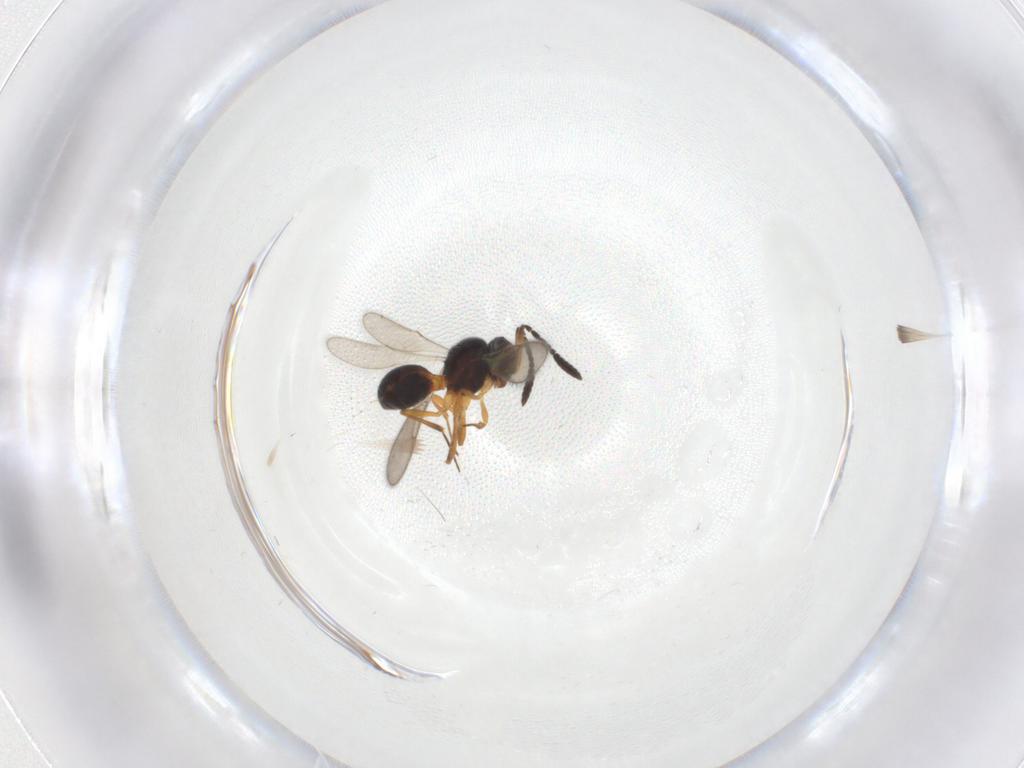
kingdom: Animalia
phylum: Arthropoda
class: Insecta
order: Hymenoptera
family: Scelionidae
